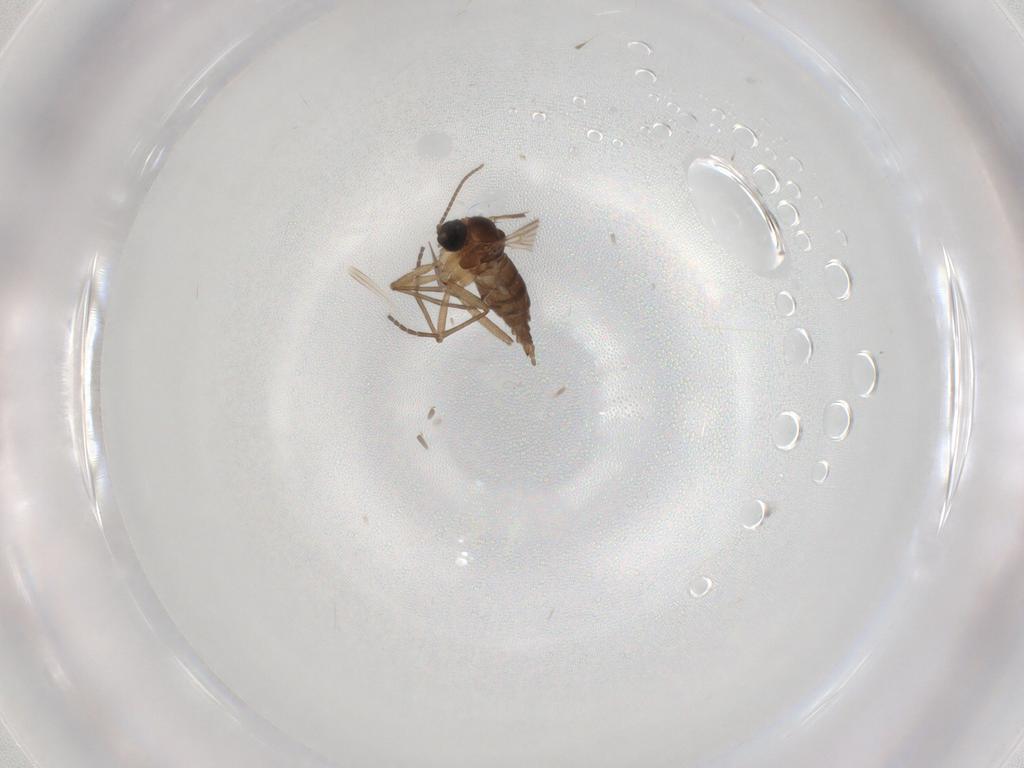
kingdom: Animalia
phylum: Arthropoda
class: Insecta
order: Diptera
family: Sciaridae
